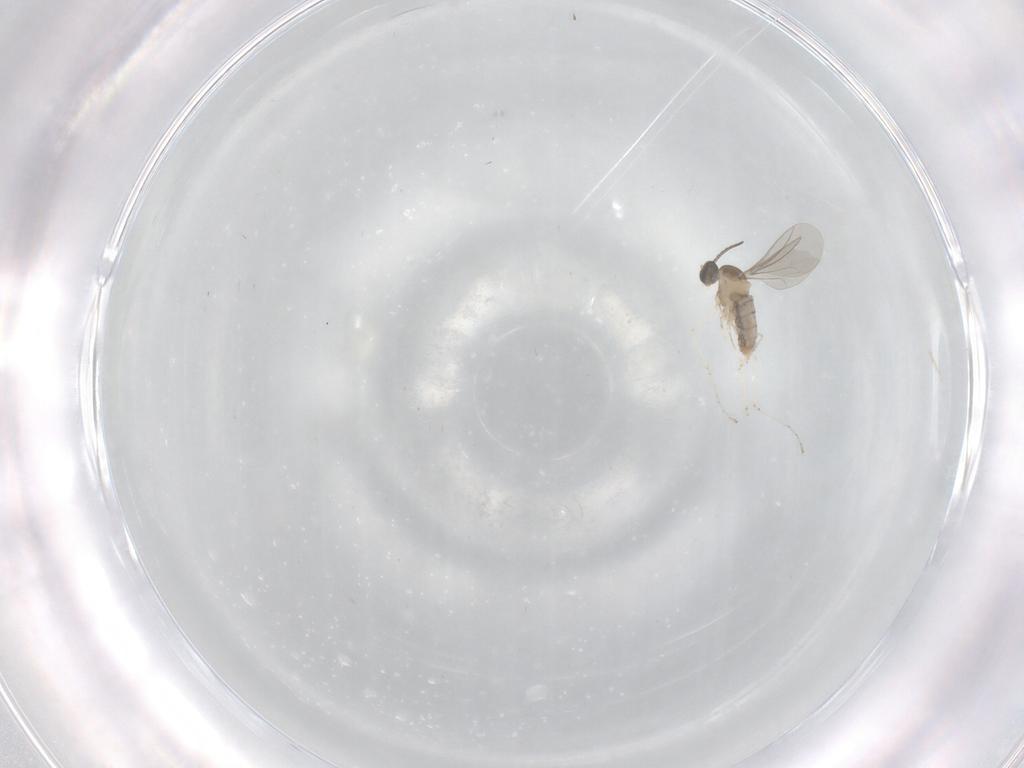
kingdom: Animalia
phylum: Arthropoda
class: Insecta
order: Diptera
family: Cecidomyiidae
